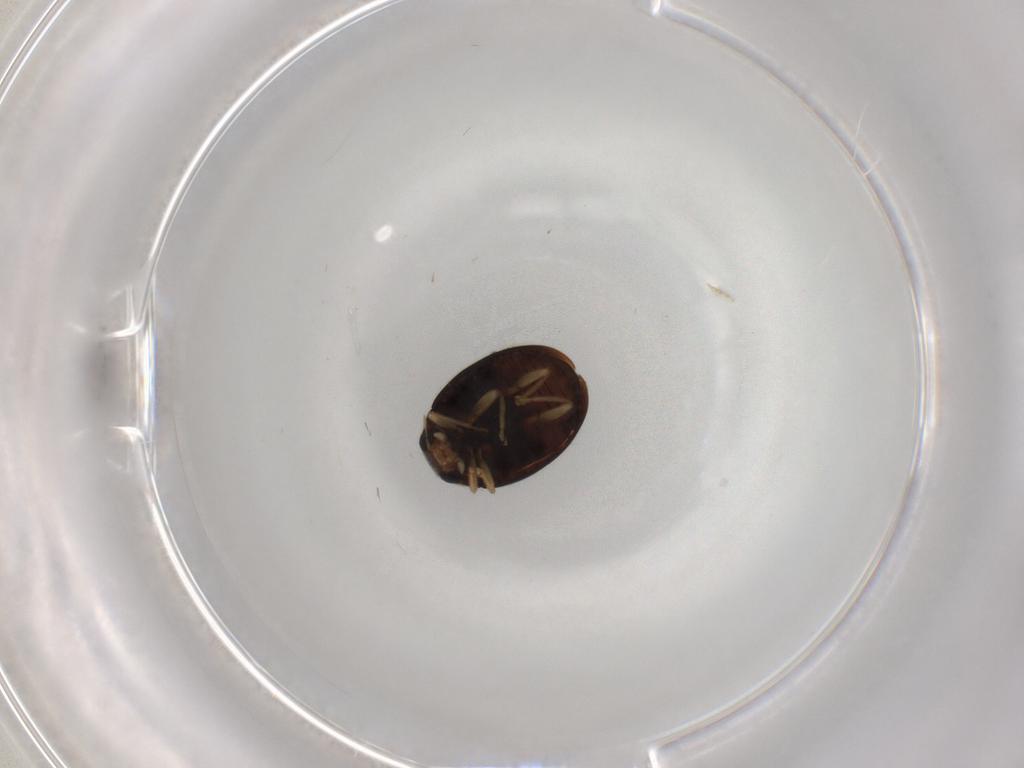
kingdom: Animalia
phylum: Arthropoda
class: Insecta
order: Coleoptera
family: Coccinellidae
